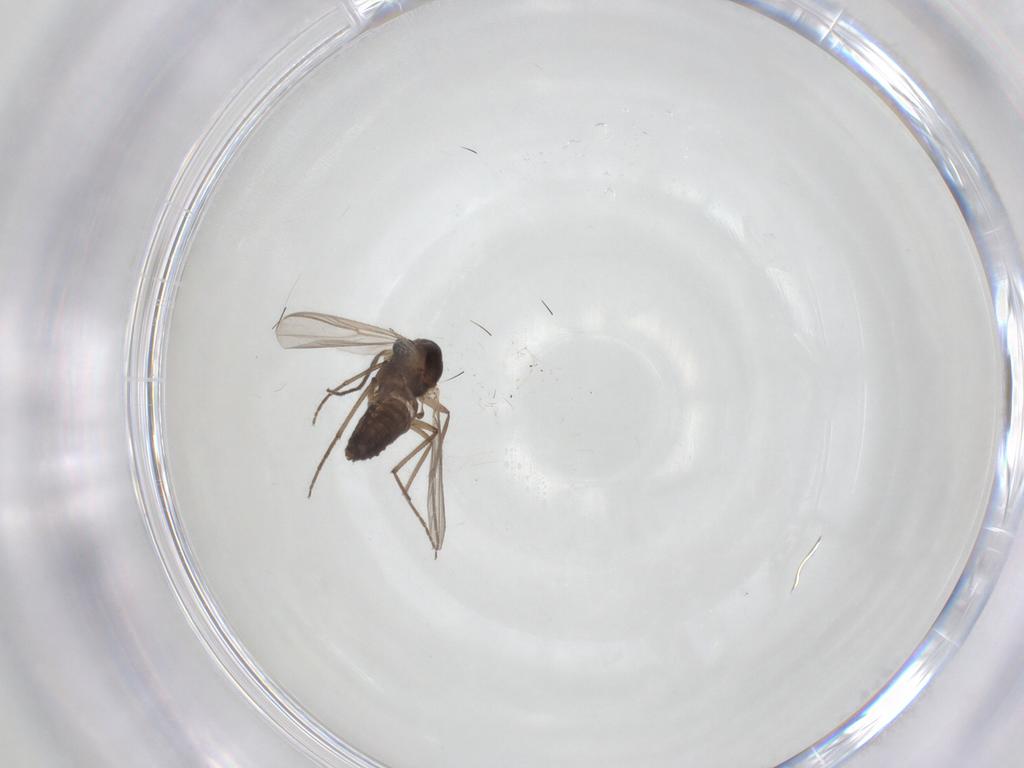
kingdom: Animalia
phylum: Arthropoda
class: Insecta
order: Diptera
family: Chironomidae
